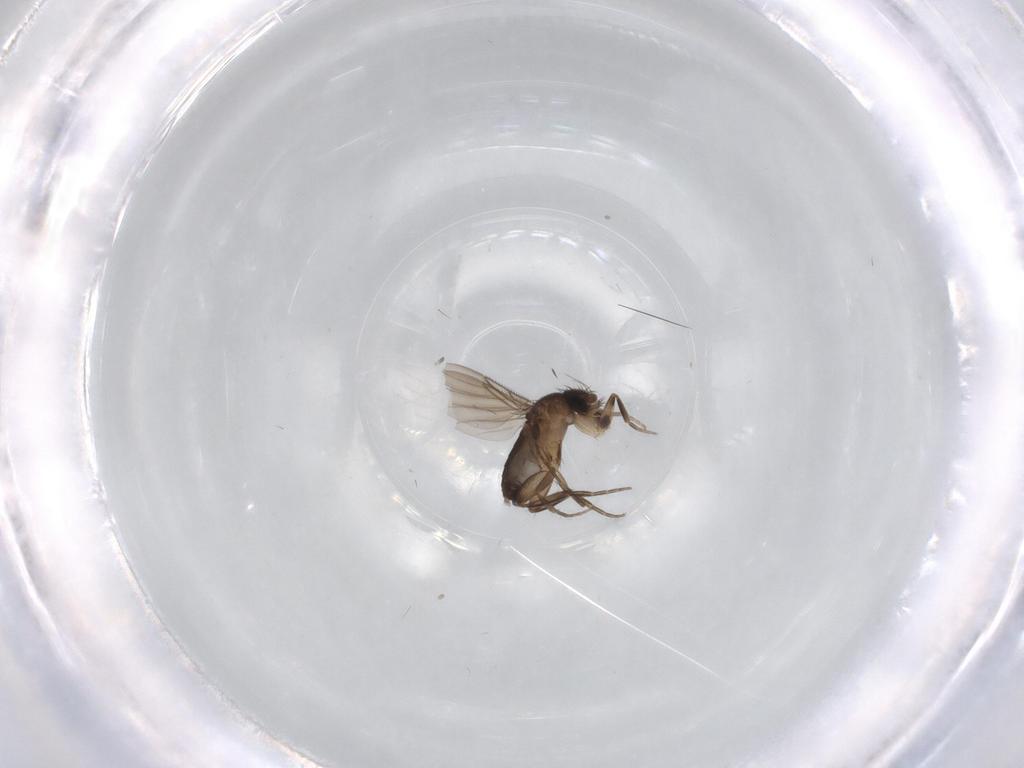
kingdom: Animalia
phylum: Arthropoda
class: Insecta
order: Diptera
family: Phoridae
